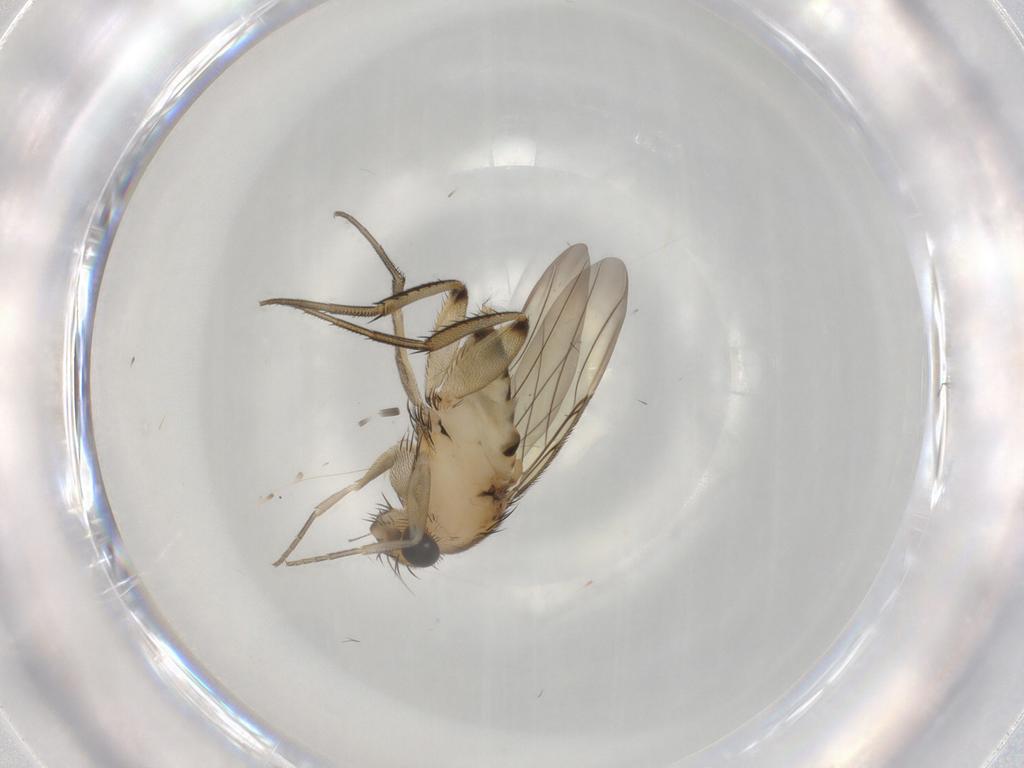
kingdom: Animalia
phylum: Arthropoda
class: Insecta
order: Diptera
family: Phoridae
